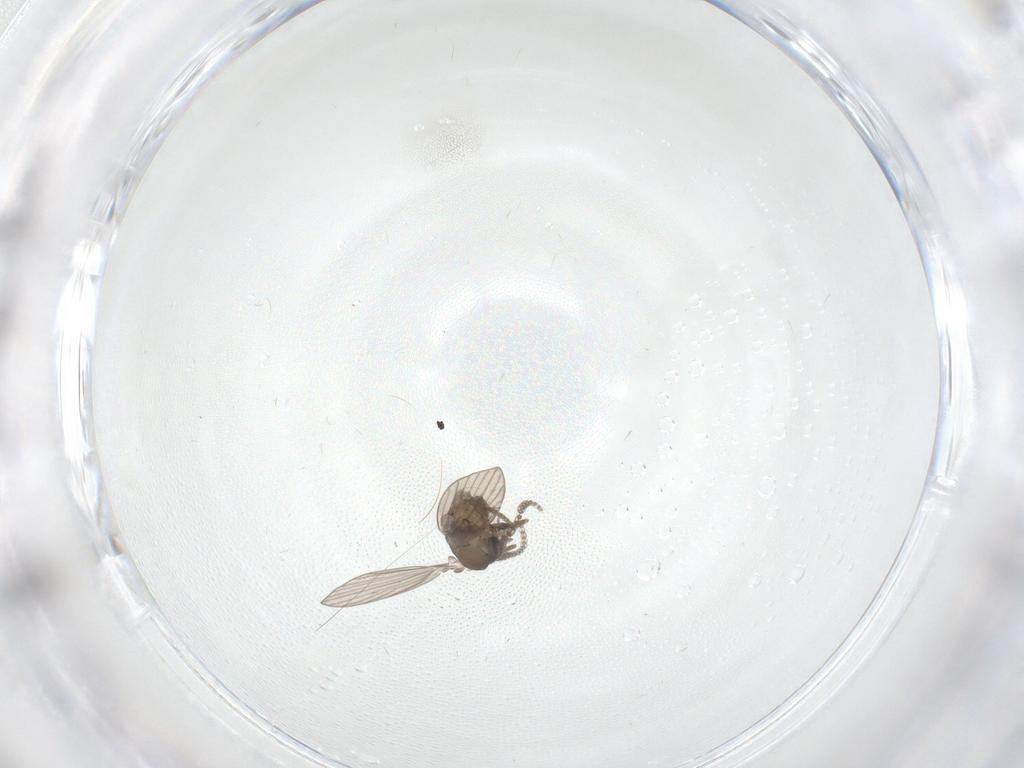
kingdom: Animalia
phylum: Arthropoda
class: Insecta
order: Diptera
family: Psychodidae
